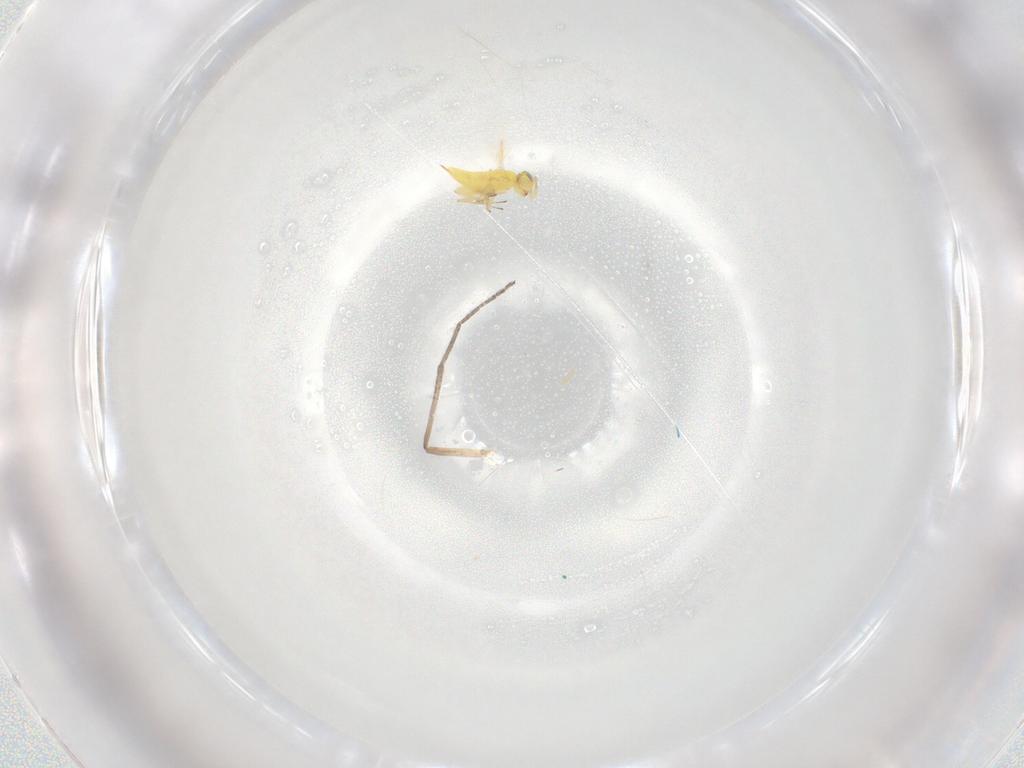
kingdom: Animalia
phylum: Arthropoda
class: Insecta
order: Hymenoptera
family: Aphelinidae
